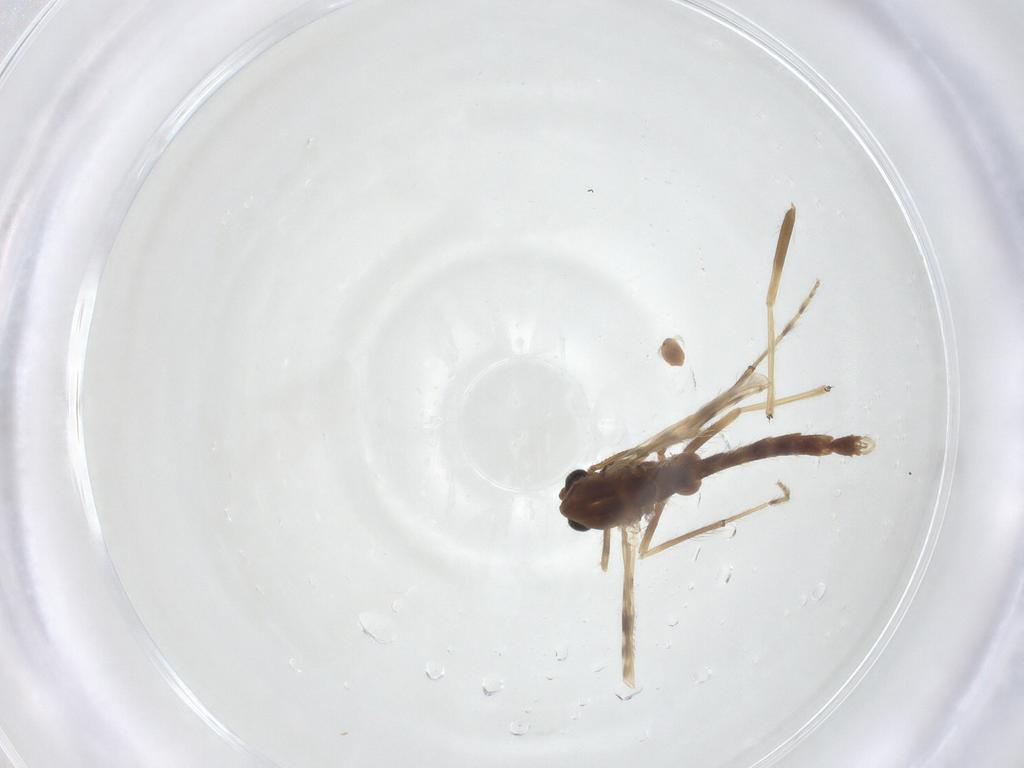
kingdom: Animalia
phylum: Arthropoda
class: Insecta
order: Diptera
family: Chironomidae
